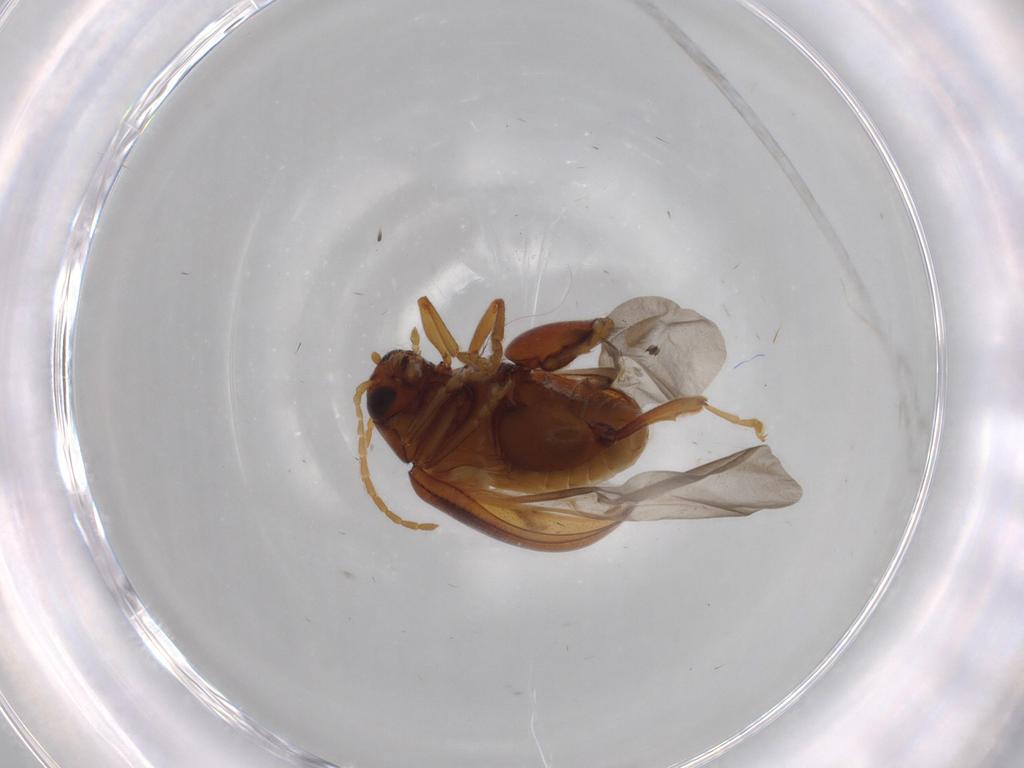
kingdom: Animalia
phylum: Arthropoda
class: Insecta
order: Coleoptera
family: Chrysomelidae
